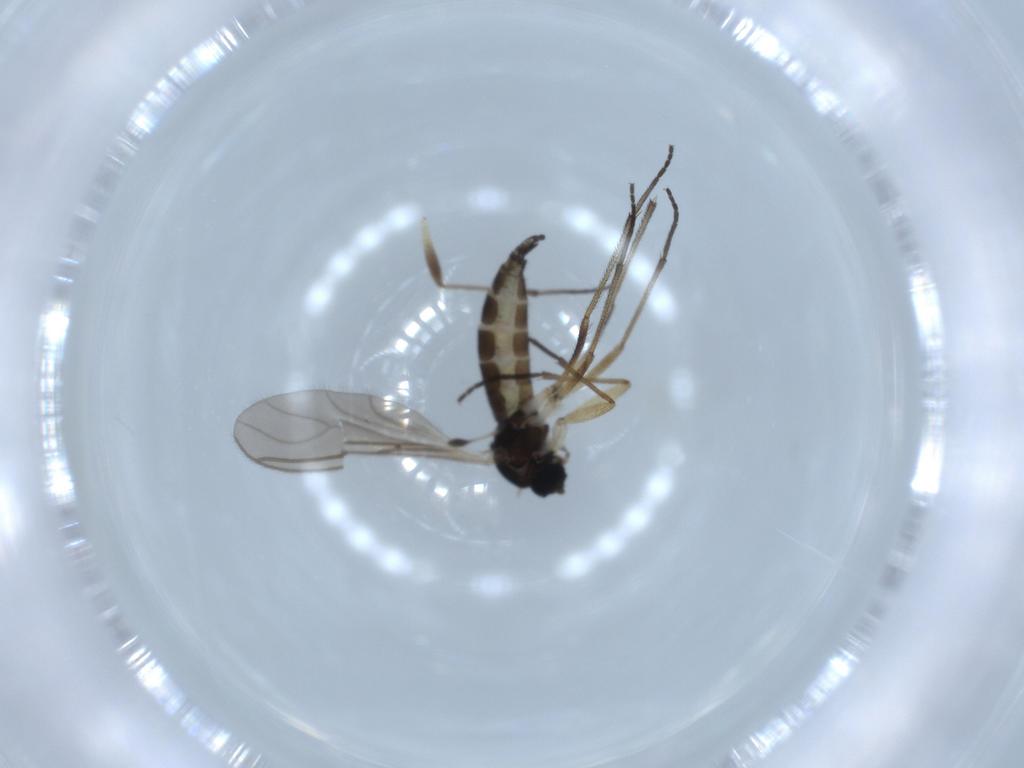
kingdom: Animalia
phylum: Arthropoda
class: Insecta
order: Diptera
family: Sciaridae
